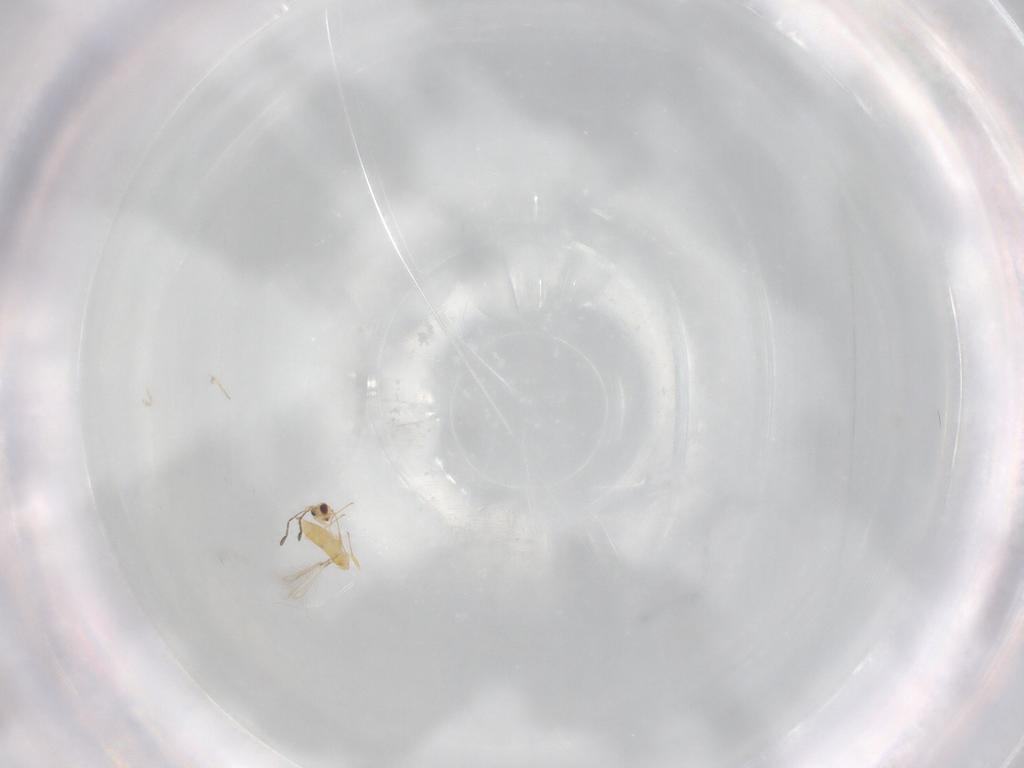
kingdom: Animalia
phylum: Arthropoda
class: Insecta
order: Hymenoptera
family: Mymaridae
